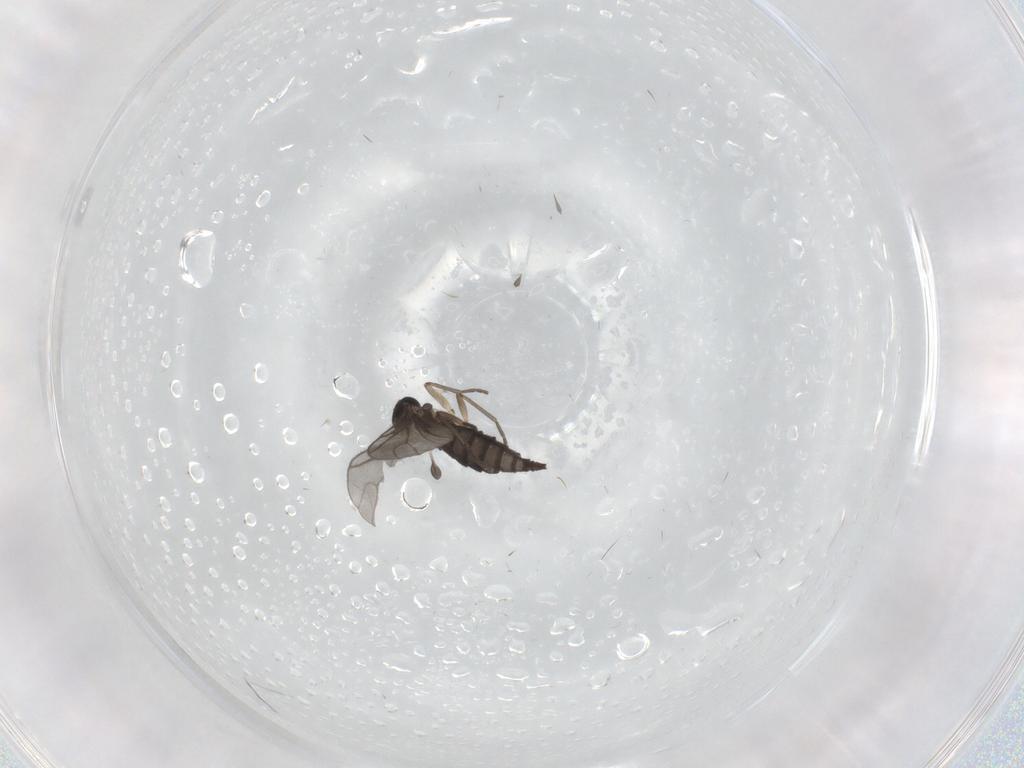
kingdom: Animalia
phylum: Arthropoda
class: Insecta
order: Diptera
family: Sciaridae
